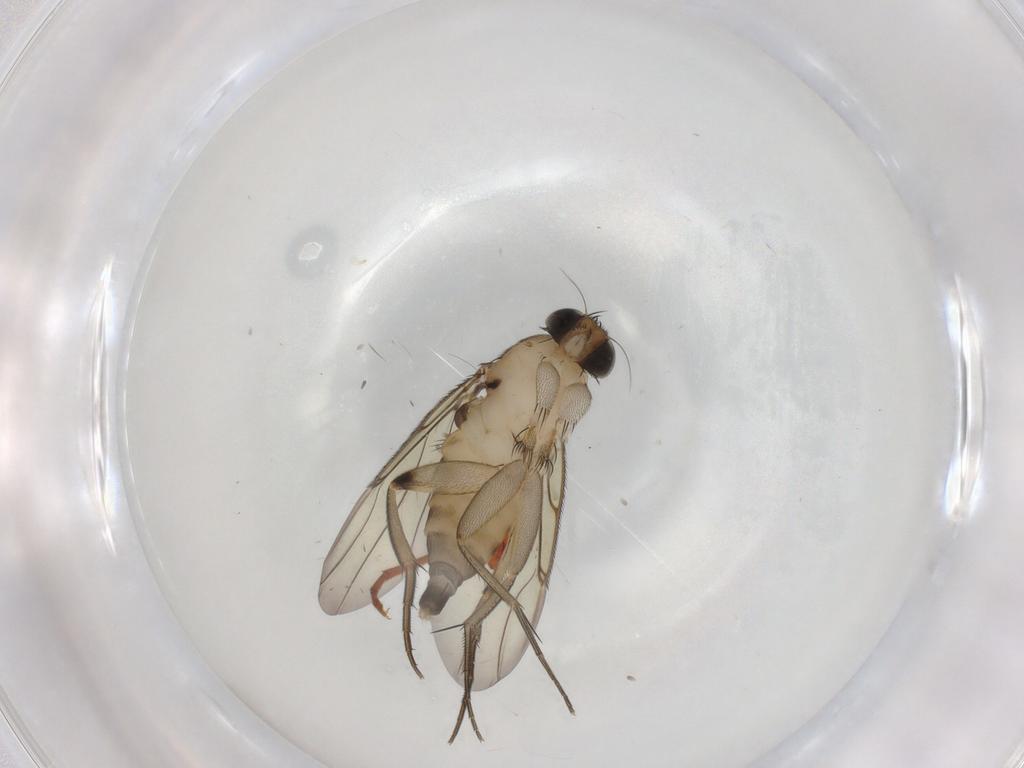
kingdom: Animalia
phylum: Arthropoda
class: Insecta
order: Diptera
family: Phoridae
